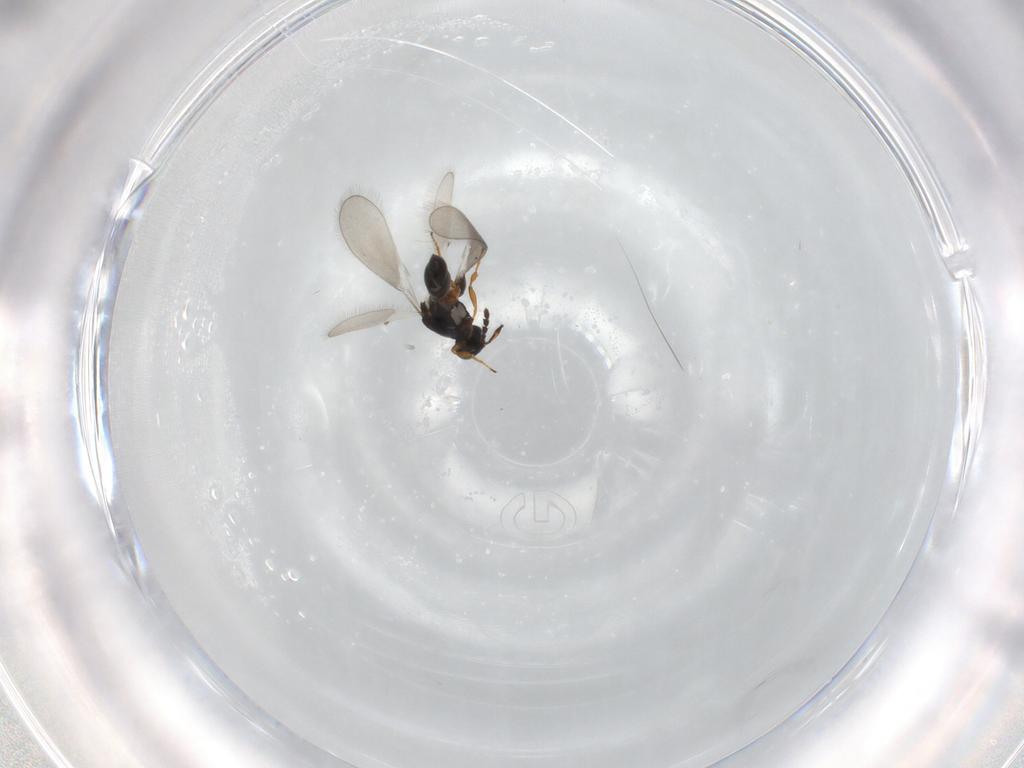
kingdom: Animalia
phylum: Arthropoda
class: Insecta
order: Hymenoptera
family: Platygastridae
